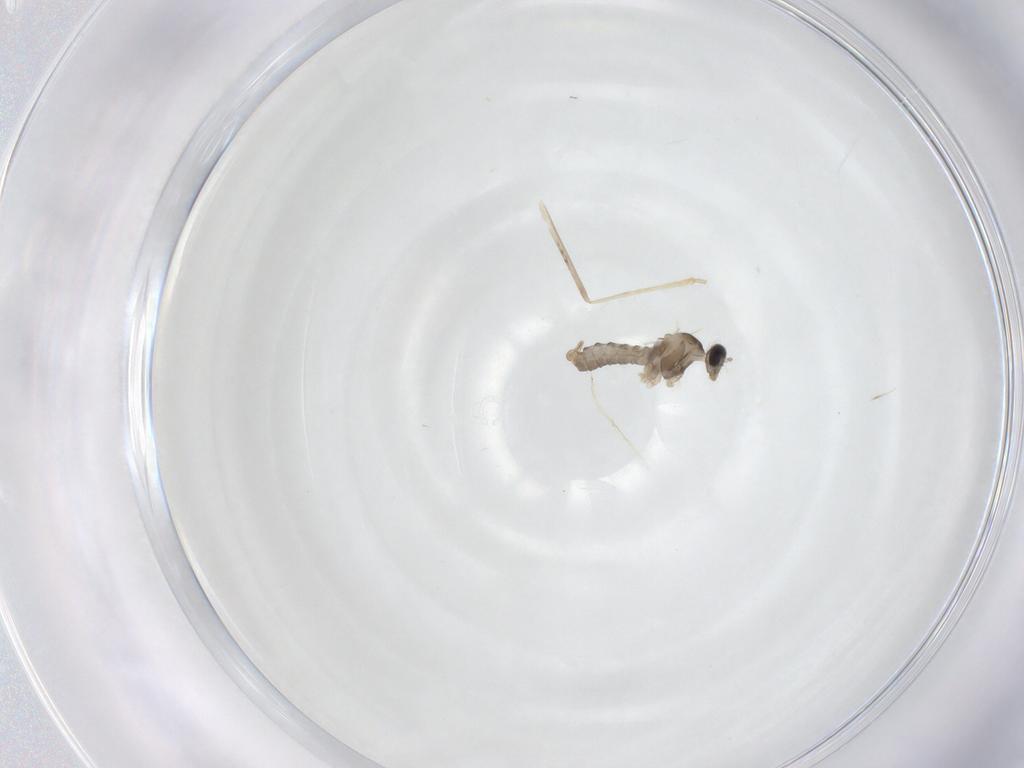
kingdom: Animalia
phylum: Arthropoda
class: Insecta
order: Diptera
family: Cecidomyiidae
